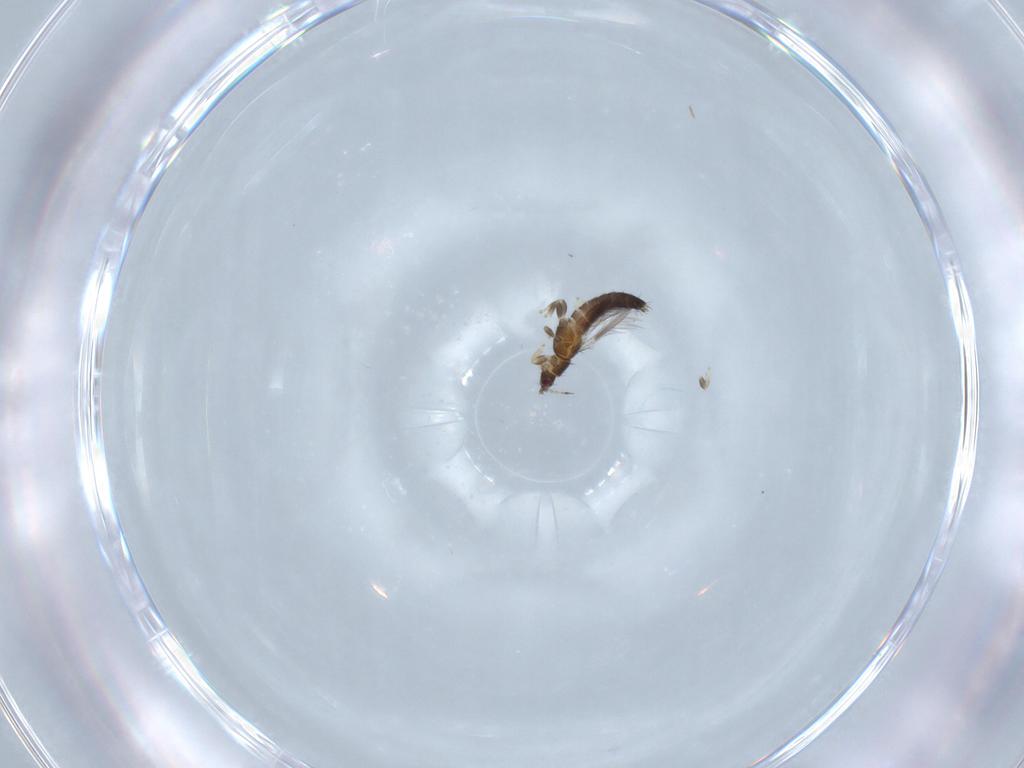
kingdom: Animalia
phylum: Arthropoda
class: Insecta
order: Thysanoptera
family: Thripidae
